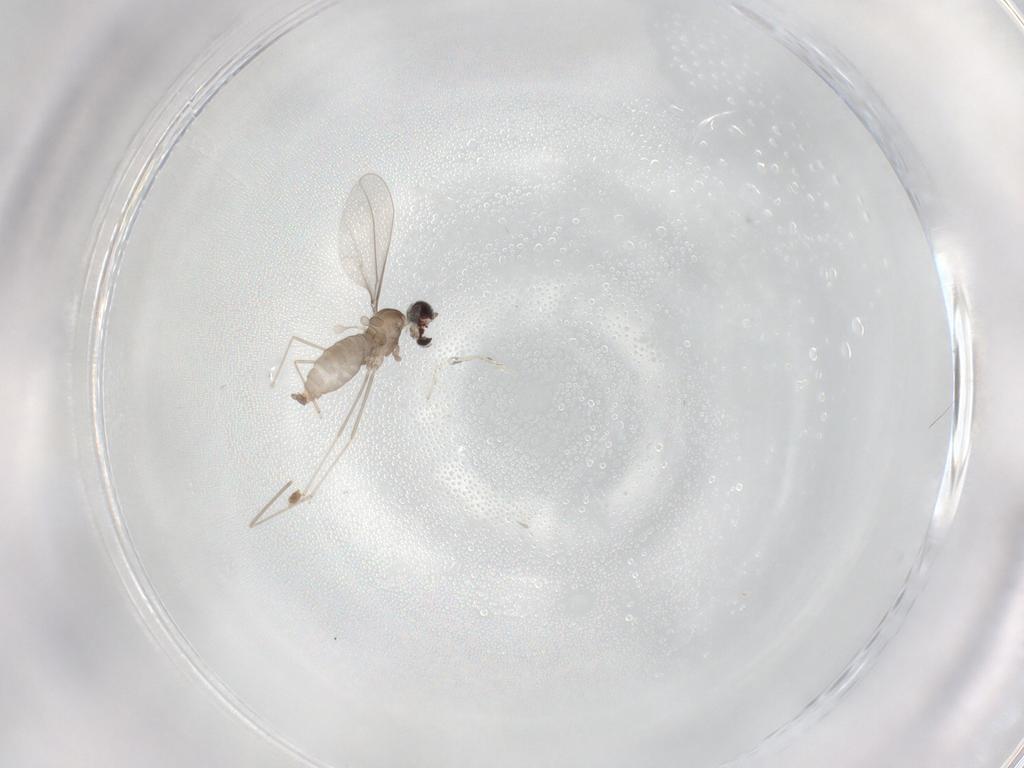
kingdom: Animalia
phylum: Arthropoda
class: Insecta
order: Diptera
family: Cecidomyiidae
